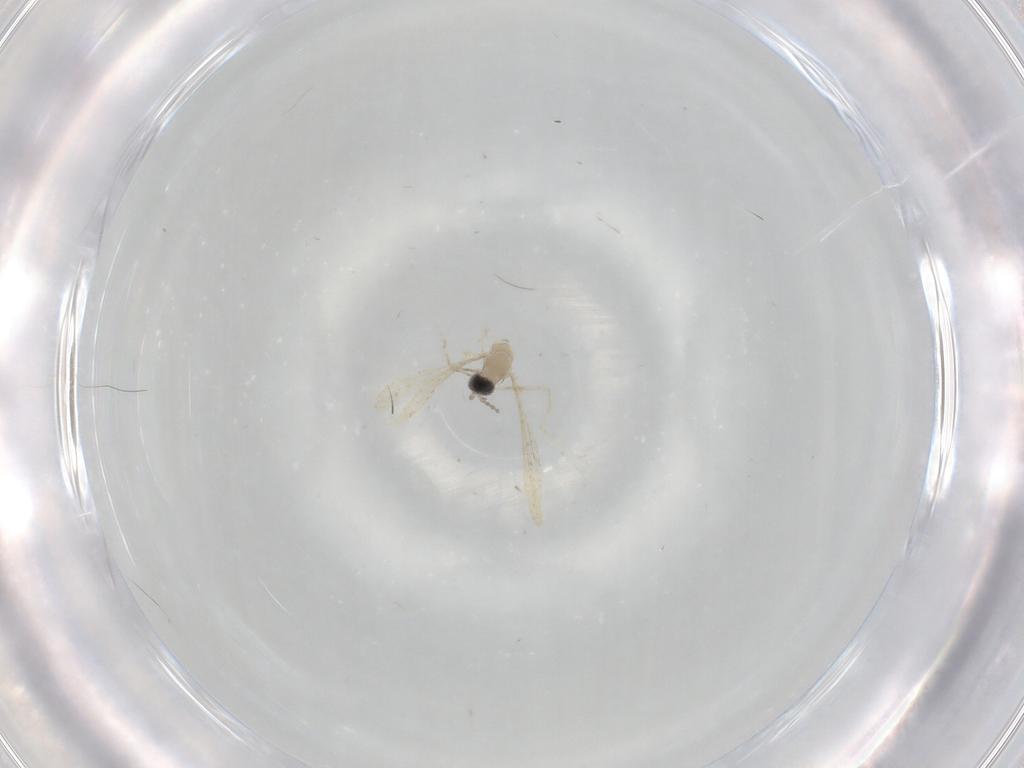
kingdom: Animalia
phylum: Arthropoda
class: Insecta
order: Diptera
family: Cecidomyiidae
